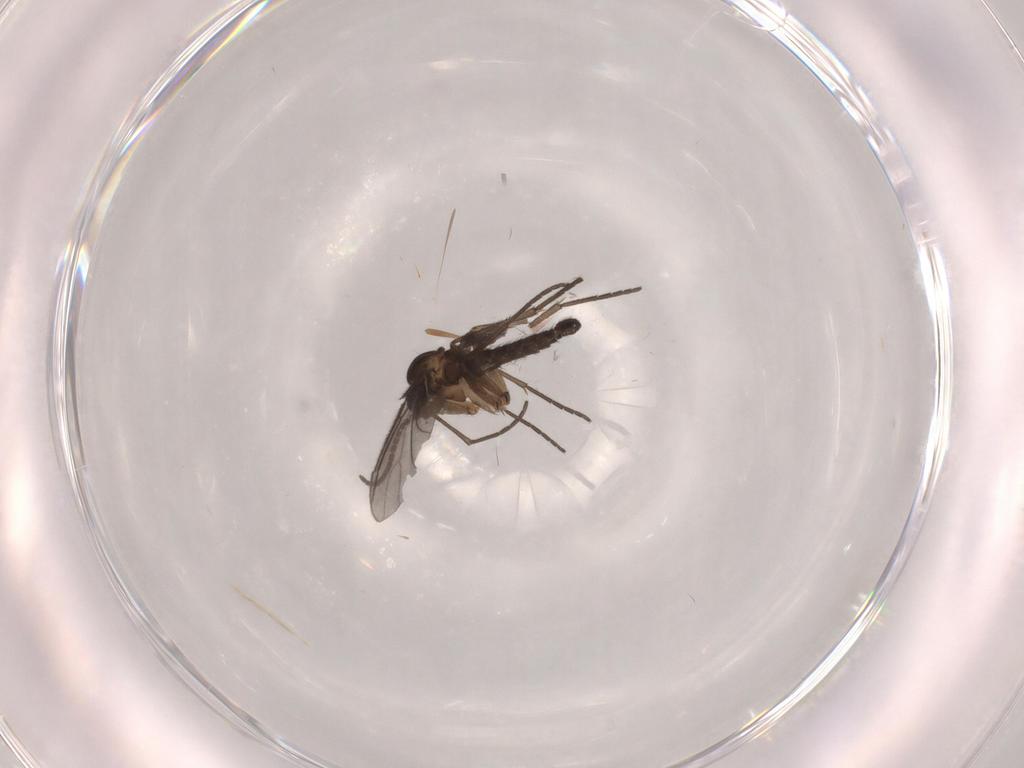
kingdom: Animalia
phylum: Arthropoda
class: Insecta
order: Diptera
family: Sciaridae
